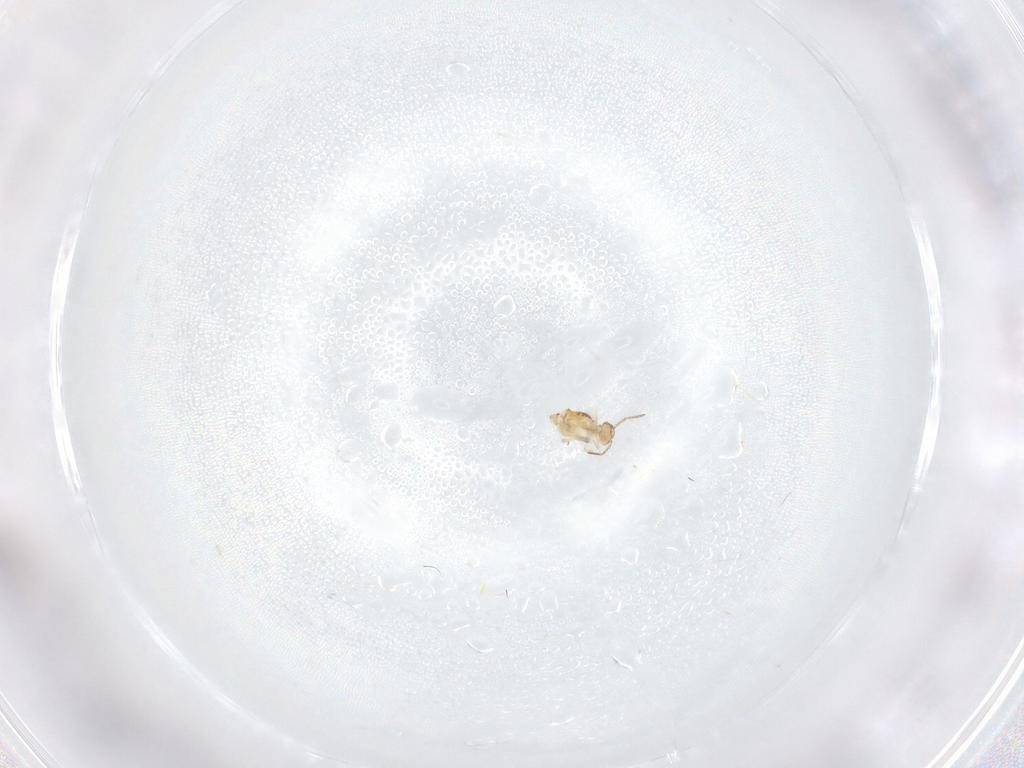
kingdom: Animalia
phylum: Arthropoda
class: Collembola
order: Symphypleona
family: Bourletiellidae
